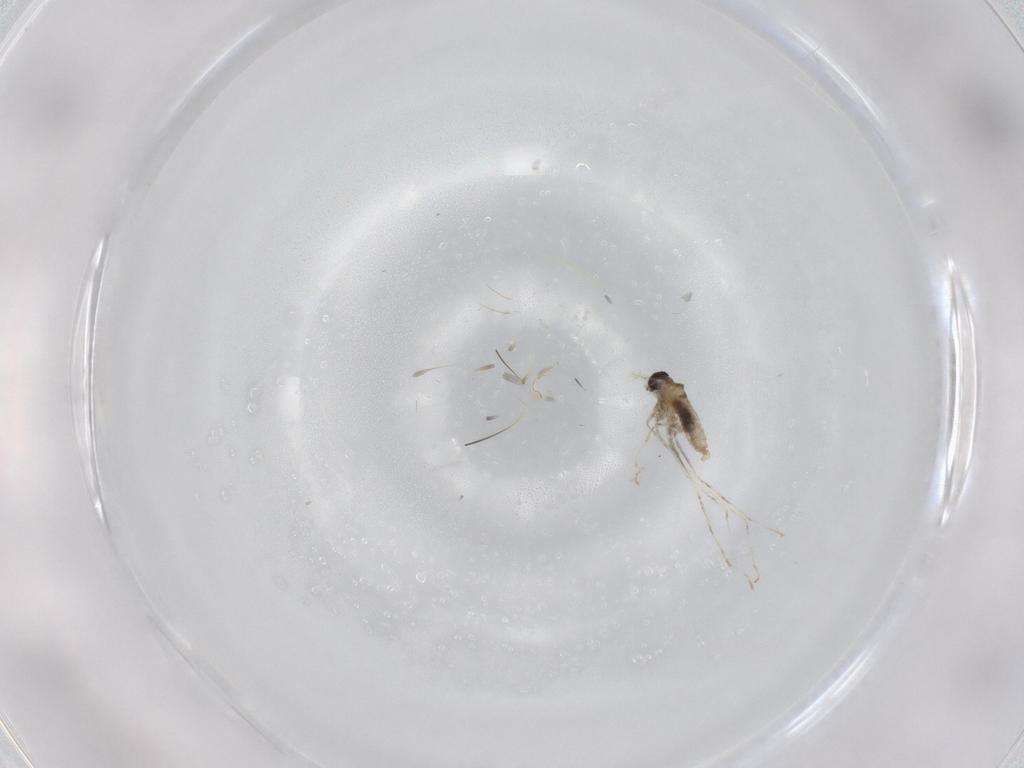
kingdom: Animalia
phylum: Arthropoda
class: Insecta
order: Diptera
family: Cecidomyiidae
